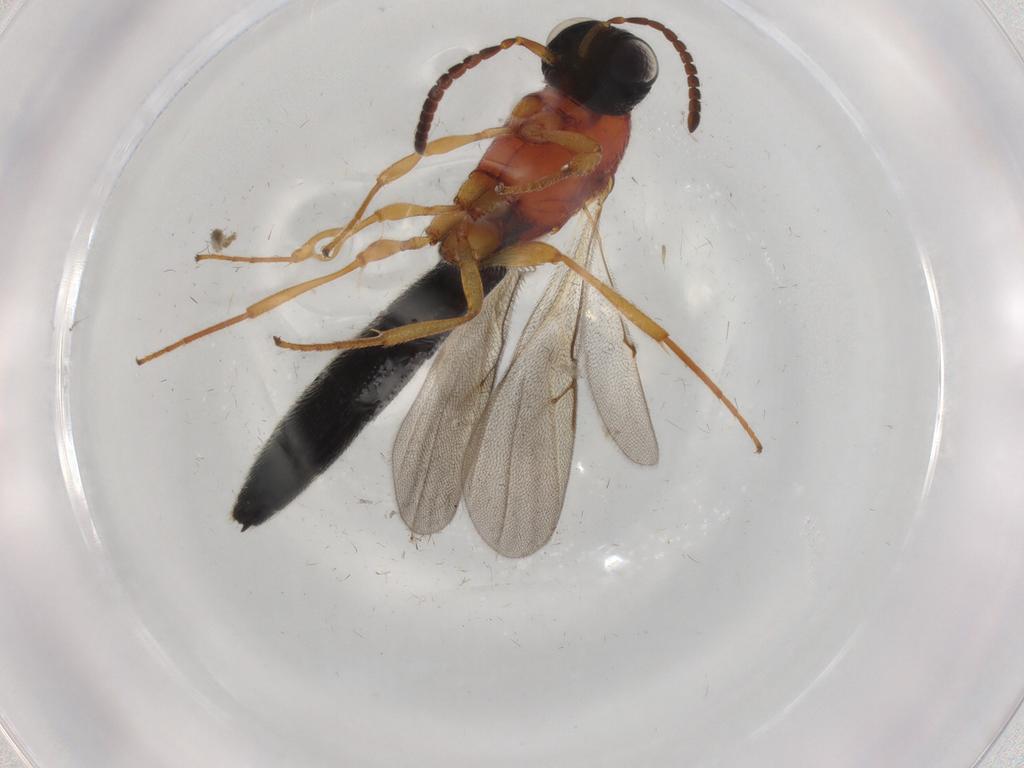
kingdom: Animalia
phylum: Arthropoda
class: Insecta
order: Hymenoptera
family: Scelionidae
